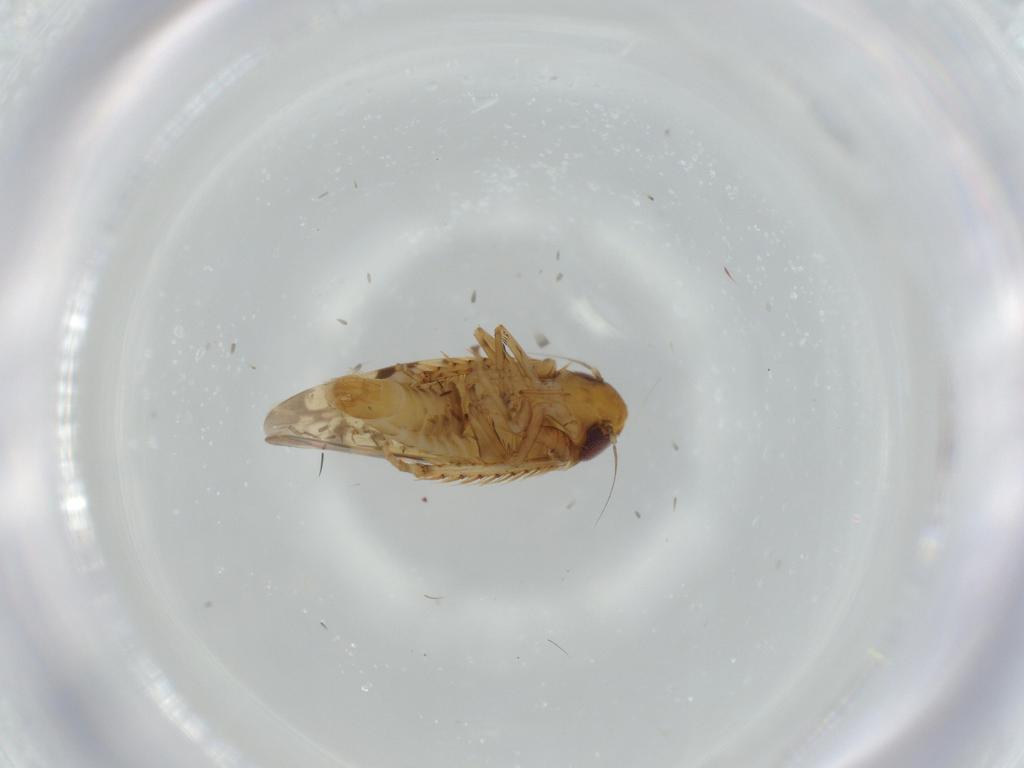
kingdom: Animalia
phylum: Arthropoda
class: Insecta
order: Hemiptera
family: Cicadellidae
